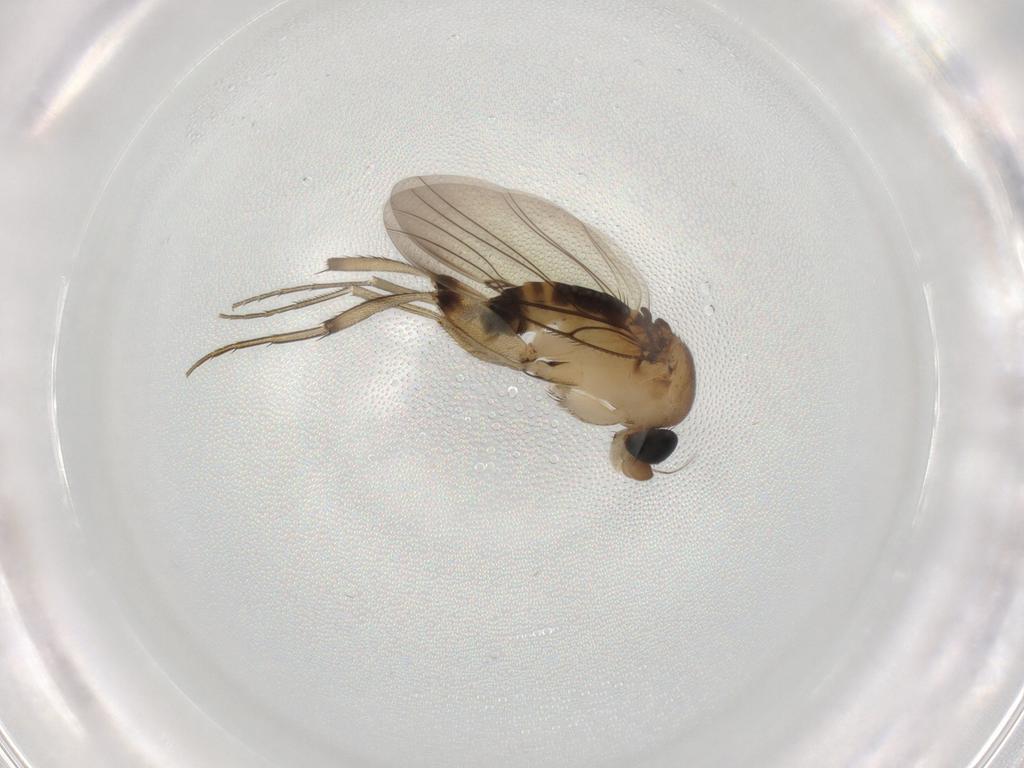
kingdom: Animalia
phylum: Arthropoda
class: Insecta
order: Diptera
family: Phoridae
